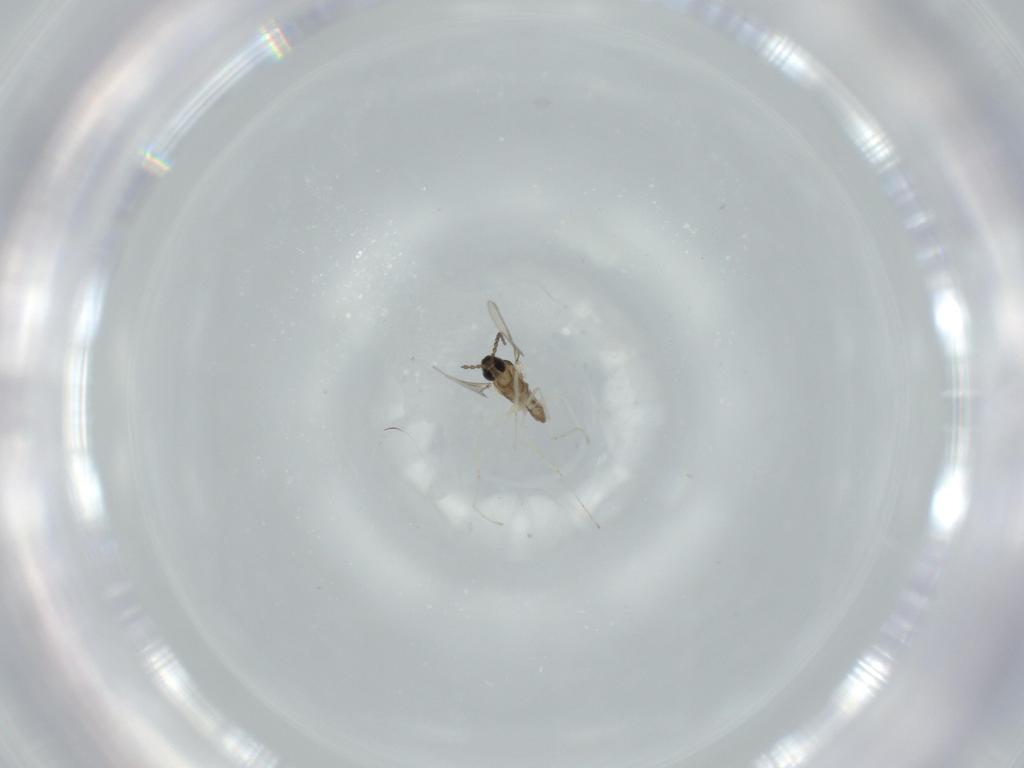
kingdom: Animalia
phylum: Arthropoda
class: Insecta
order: Diptera
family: Cecidomyiidae
